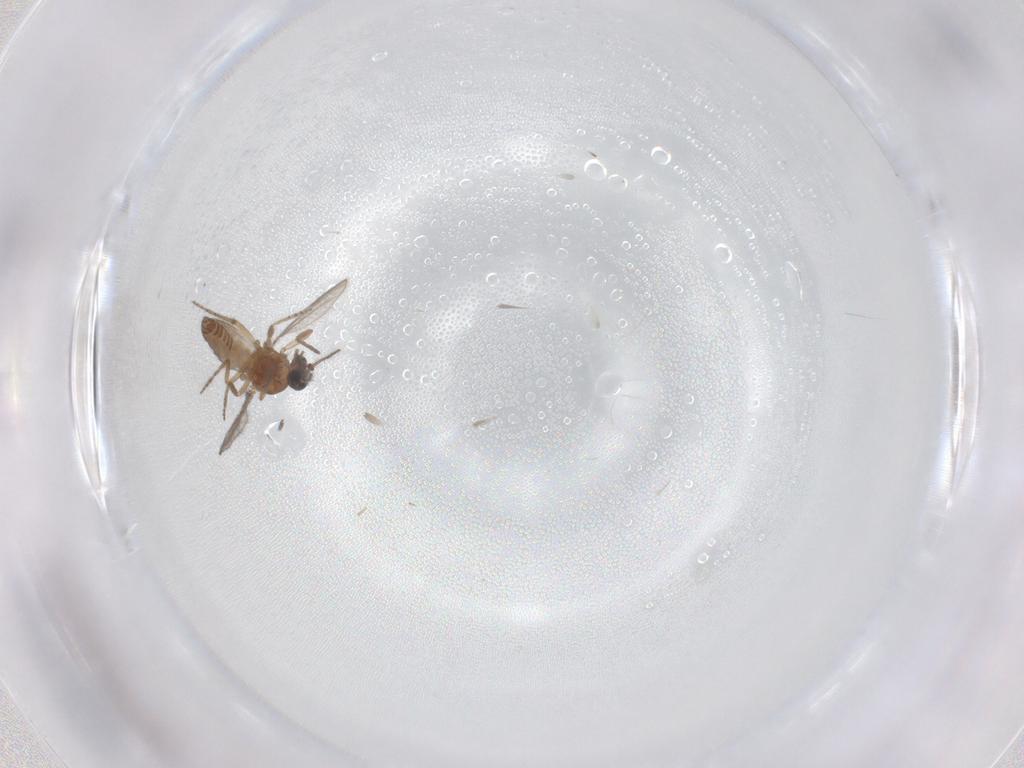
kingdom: Animalia
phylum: Arthropoda
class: Insecta
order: Diptera
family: Ceratopogonidae
